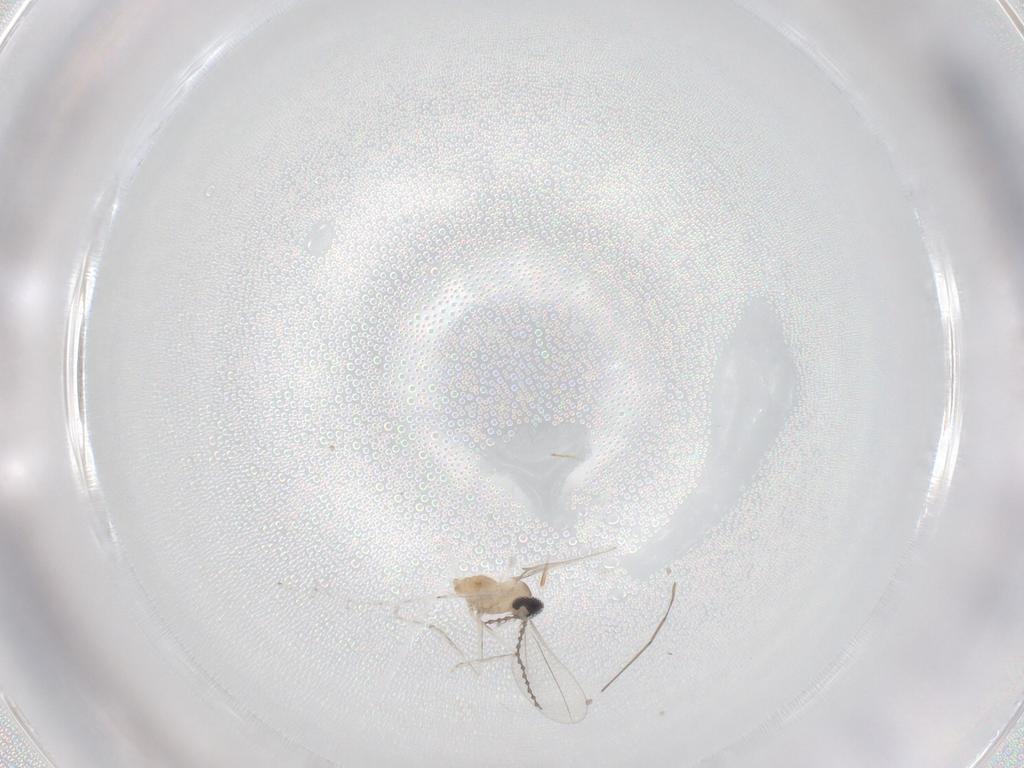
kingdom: Animalia
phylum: Arthropoda
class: Insecta
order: Diptera
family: Cecidomyiidae
